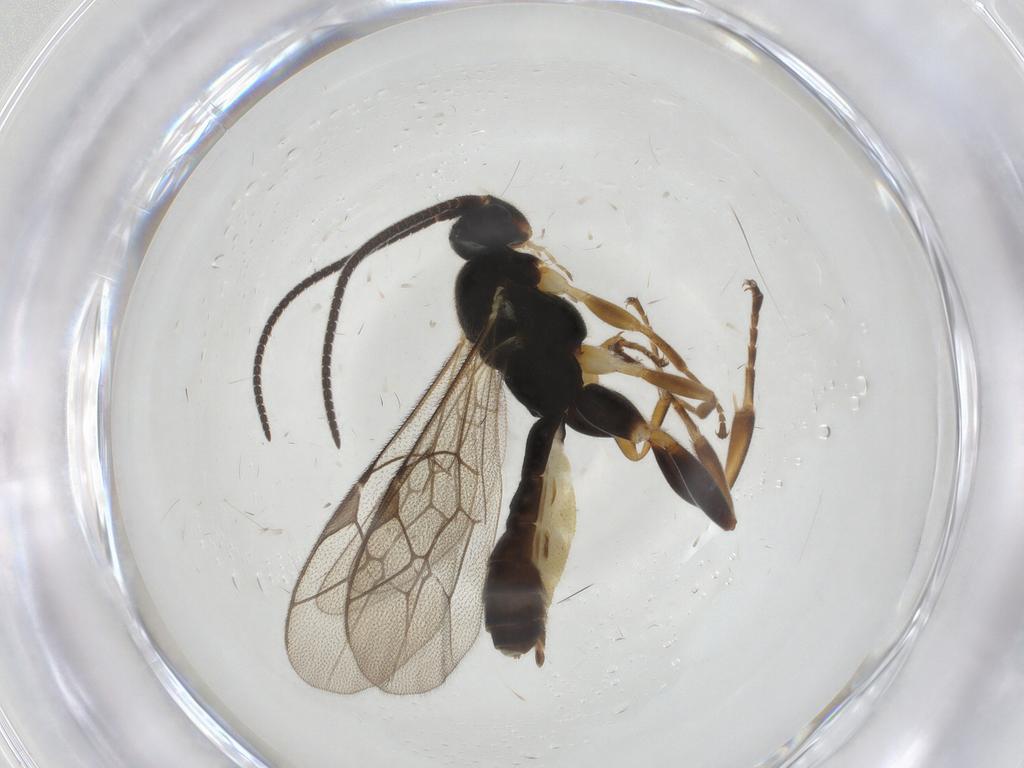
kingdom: Animalia
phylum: Arthropoda
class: Insecta
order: Hymenoptera
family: Ichneumonidae
